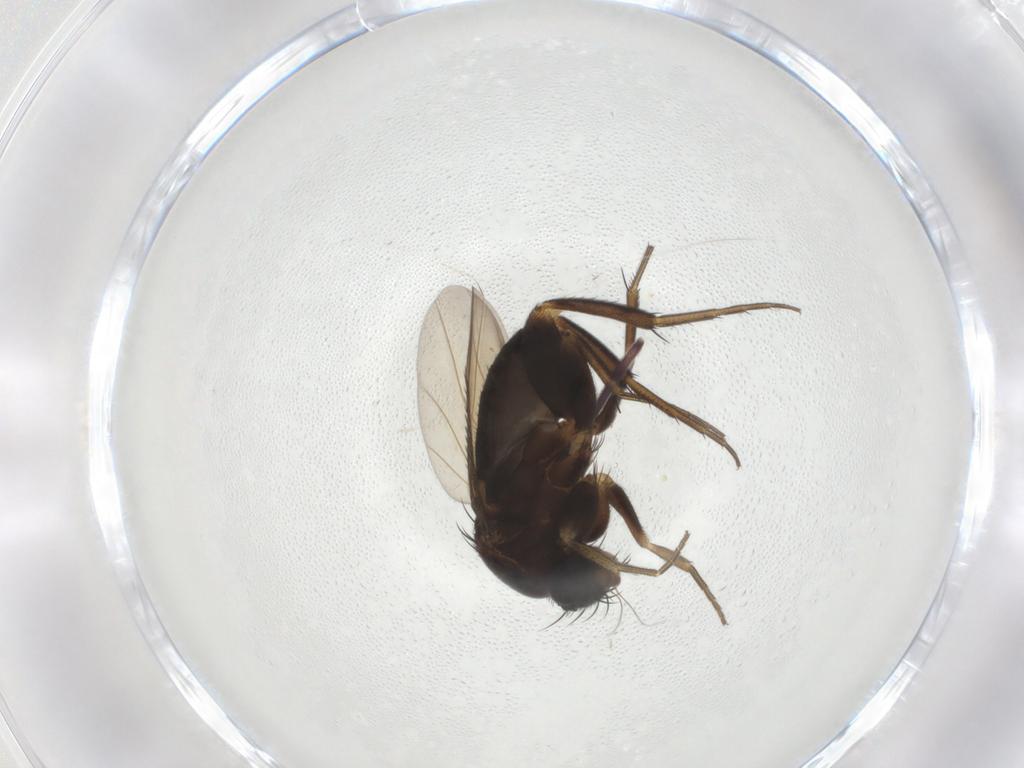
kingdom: Animalia
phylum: Arthropoda
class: Insecta
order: Diptera
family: Phoridae
